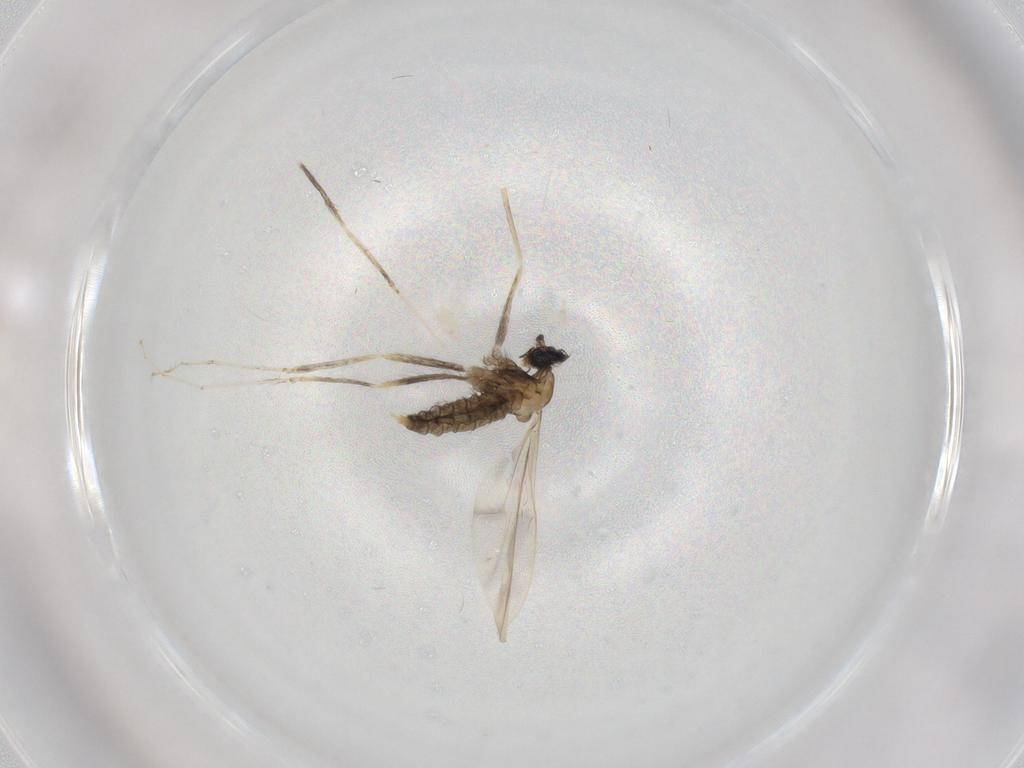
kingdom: Animalia
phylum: Arthropoda
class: Insecta
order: Diptera
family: Cecidomyiidae
